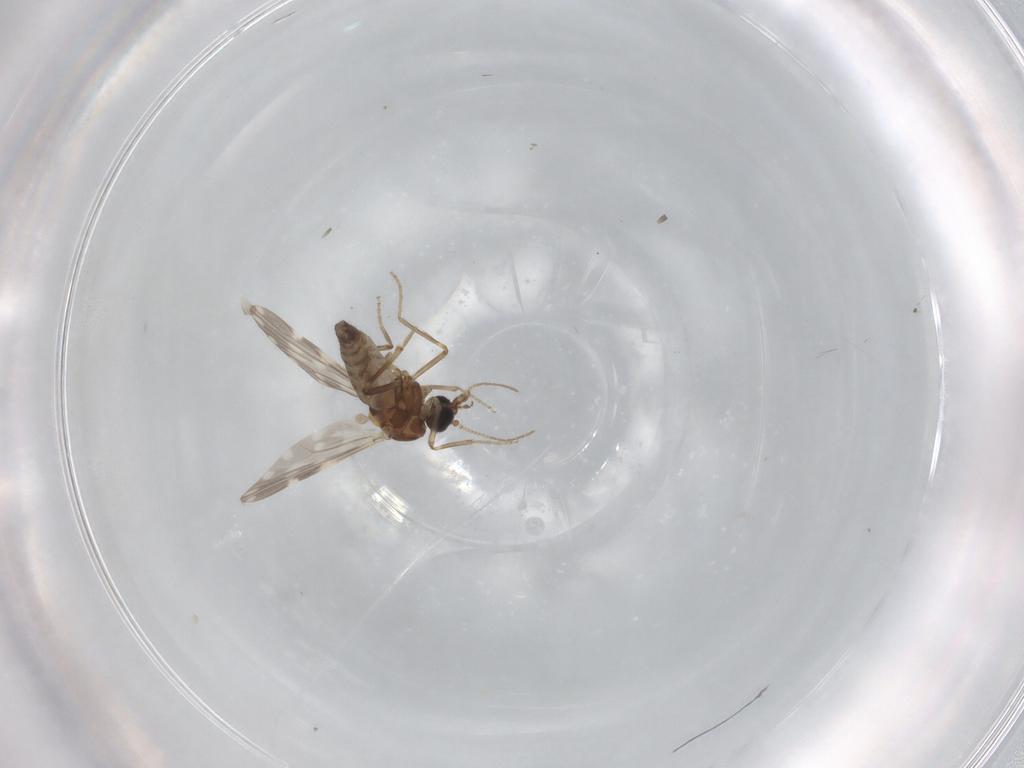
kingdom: Animalia
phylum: Arthropoda
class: Insecta
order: Diptera
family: Ceratopogonidae
